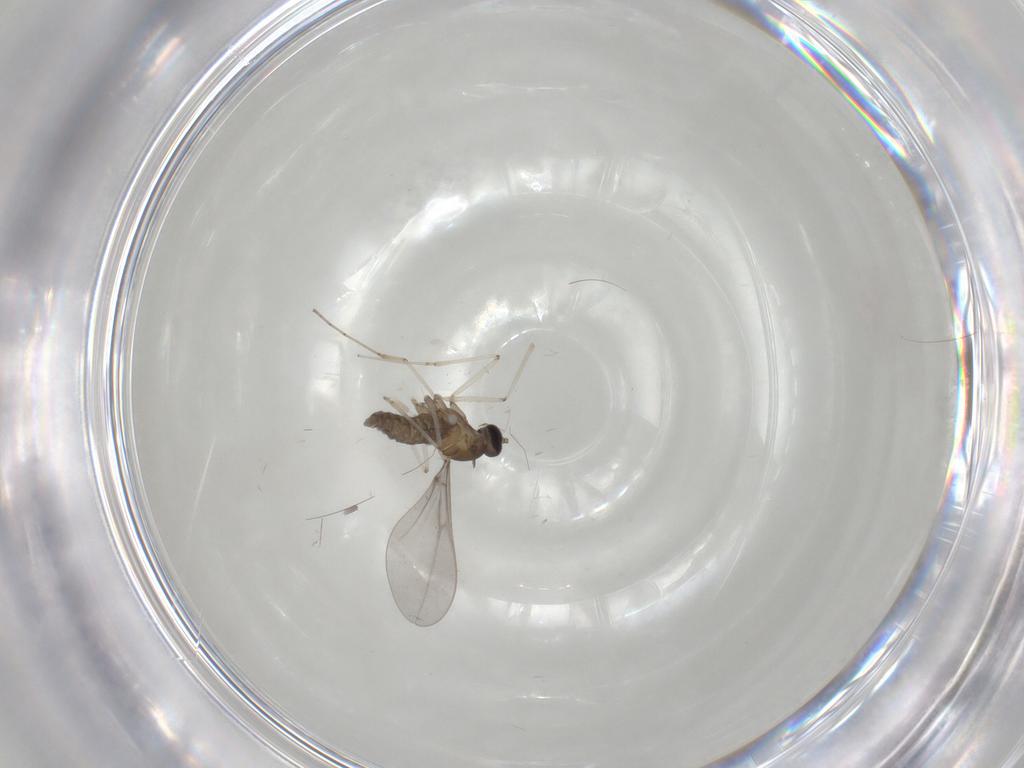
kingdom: Animalia
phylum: Arthropoda
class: Insecta
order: Diptera
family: Cecidomyiidae
